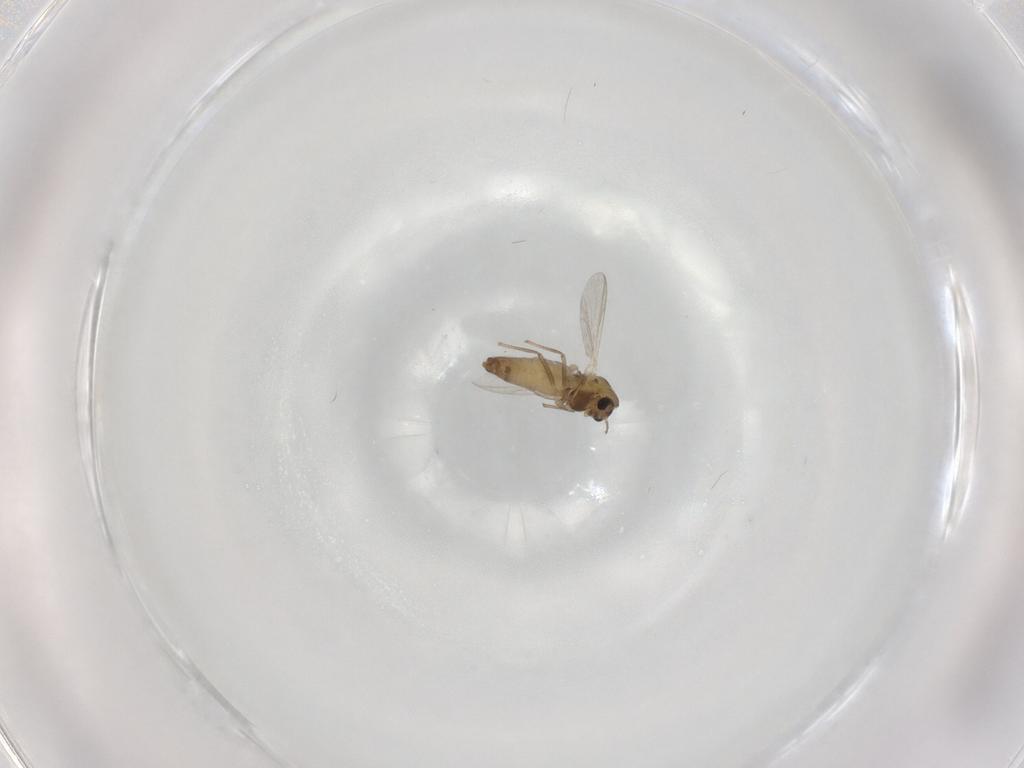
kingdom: Animalia
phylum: Arthropoda
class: Insecta
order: Diptera
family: Chironomidae
